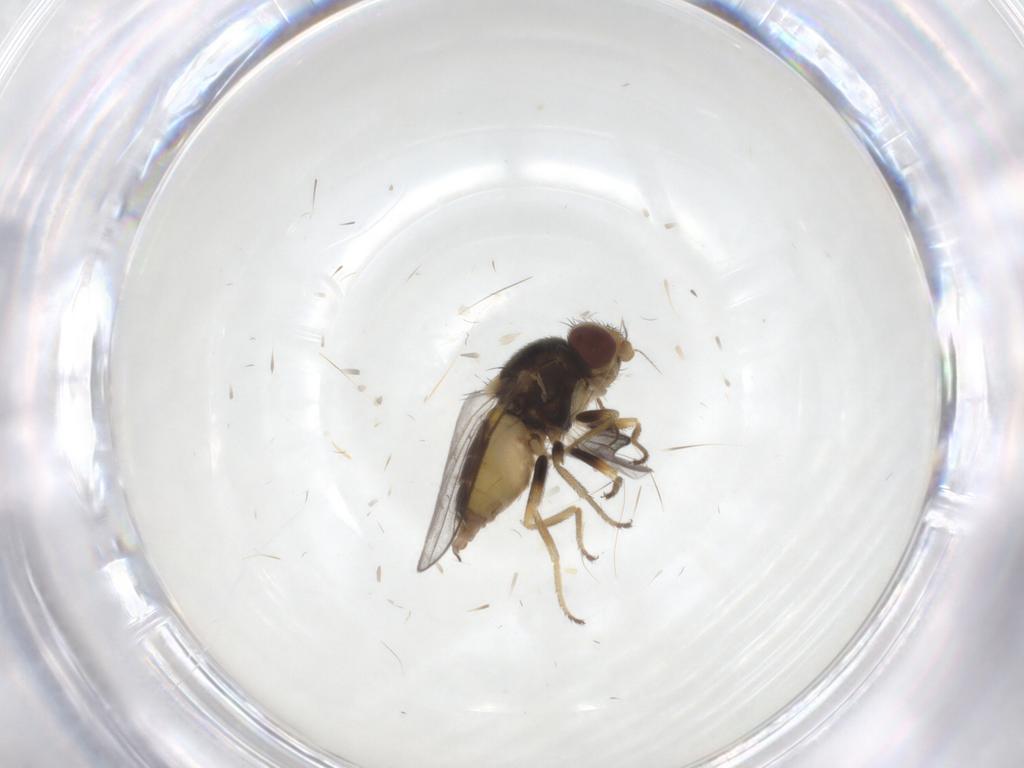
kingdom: Animalia
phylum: Arthropoda
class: Insecta
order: Diptera
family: Chloropidae
